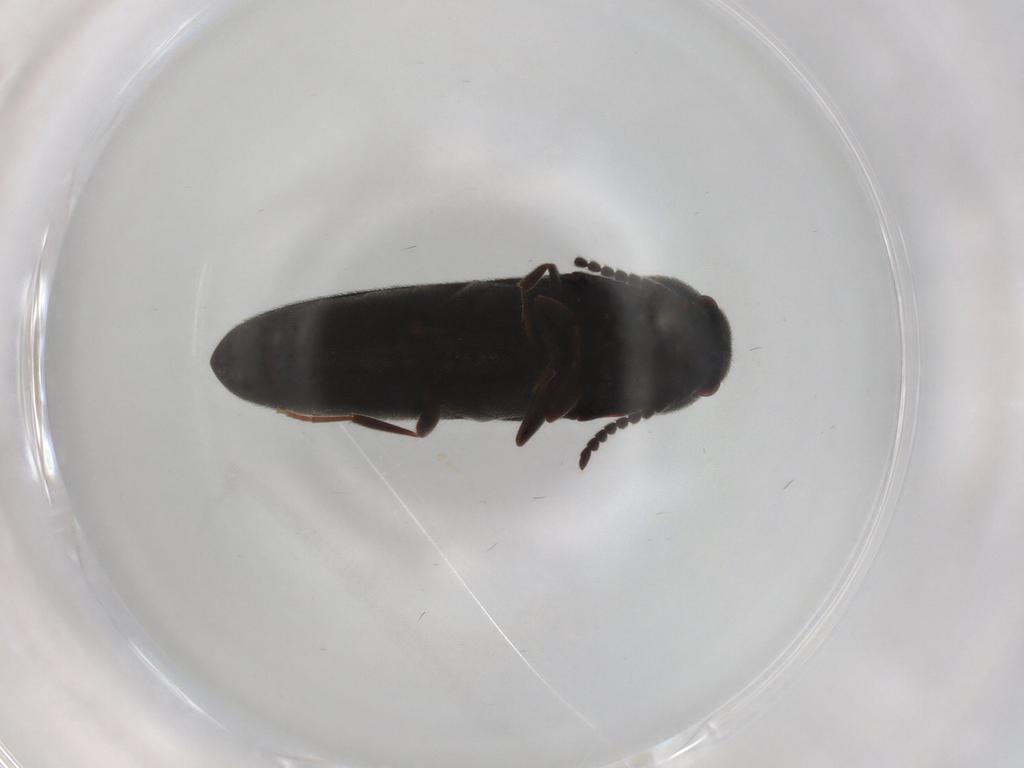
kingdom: Animalia
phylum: Arthropoda
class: Insecta
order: Coleoptera
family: Eucnemidae
